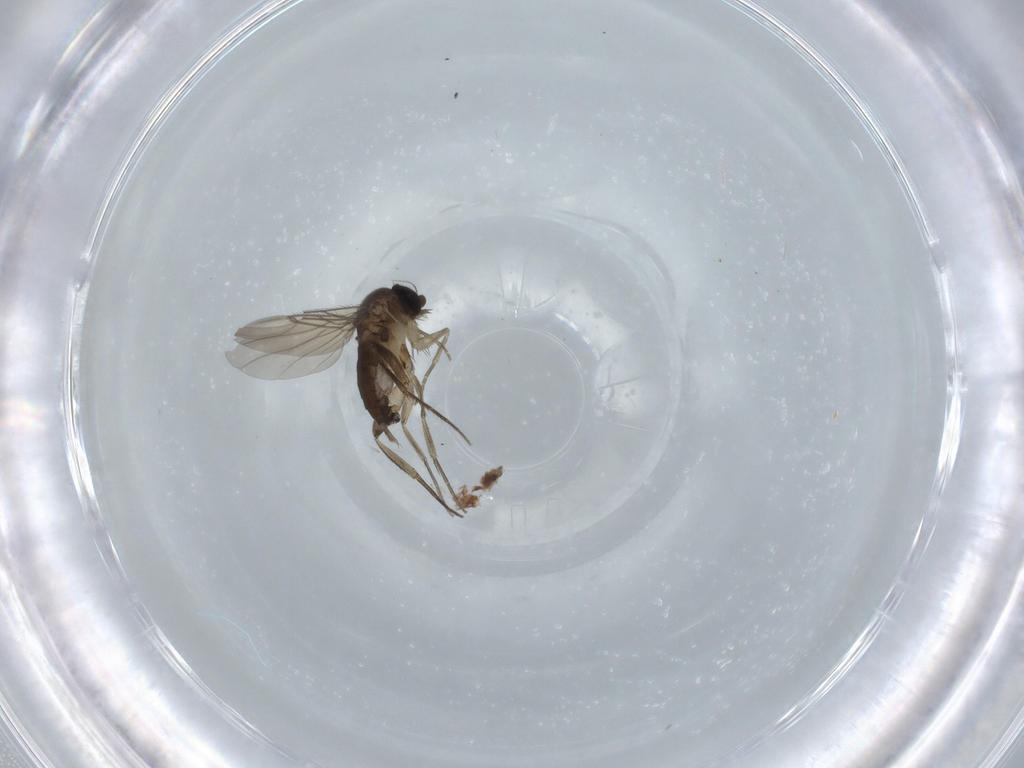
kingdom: Animalia
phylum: Arthropoda
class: Insecta
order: Diptera
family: Phoridae
